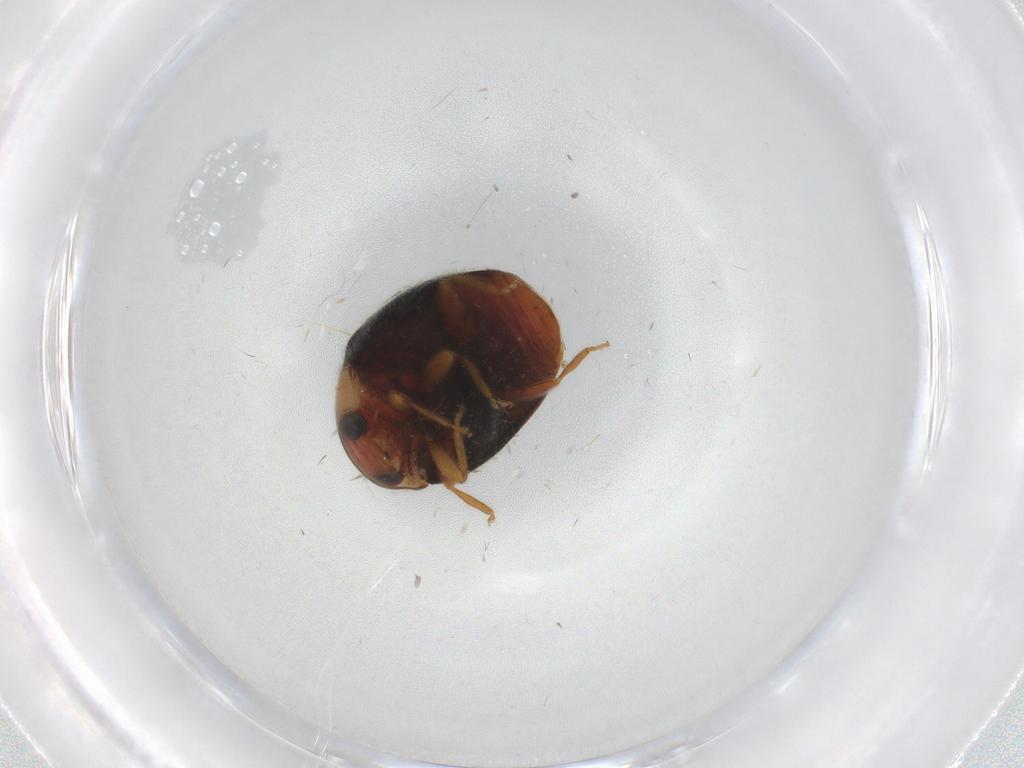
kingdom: Animalia
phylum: Arthropoda
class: Insecta
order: Coleoptera
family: Coccinellidae
